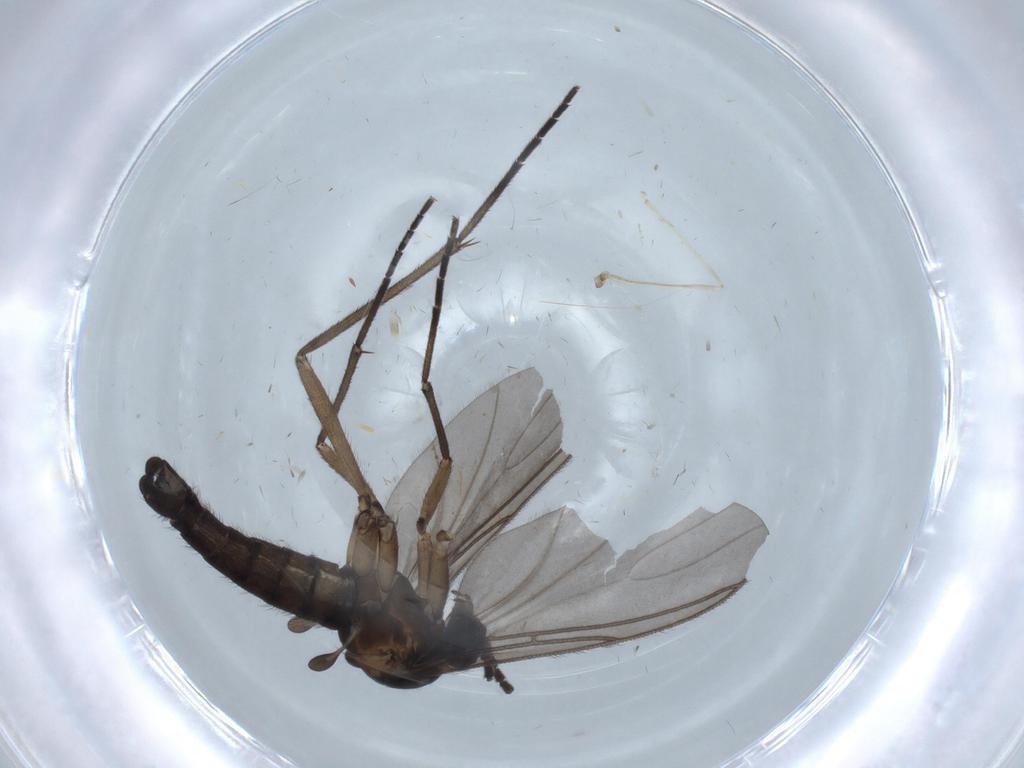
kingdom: Animalia
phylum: Arthropoda
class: Insecta
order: Diptera
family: Sciaridae
